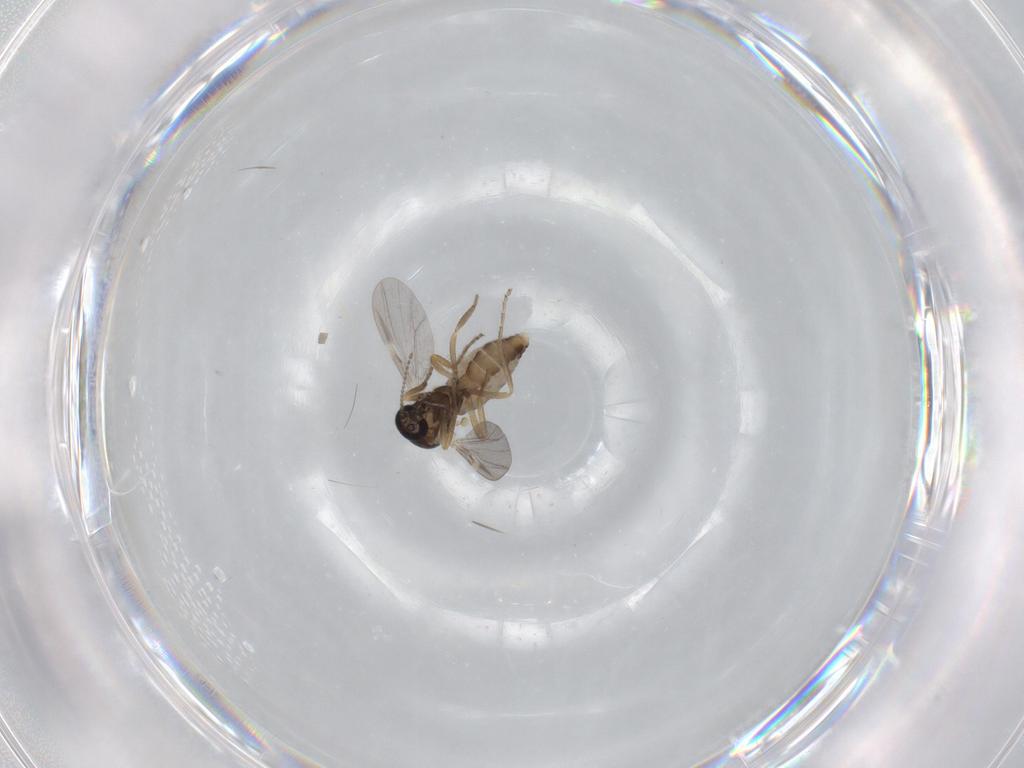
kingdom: Animalia
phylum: Arthropoda
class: Insecta
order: Diptera
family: Ceratopogonidae
